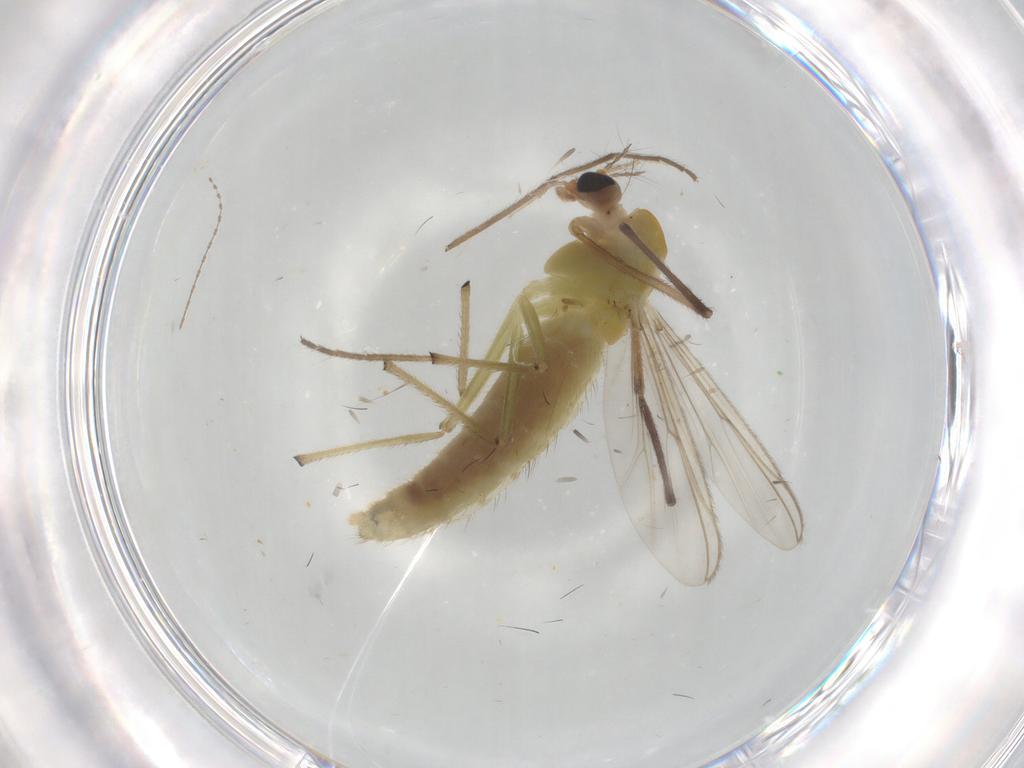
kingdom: Animalia
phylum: Arthropoda
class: Insecta
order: Diptera
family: Chironomidae
